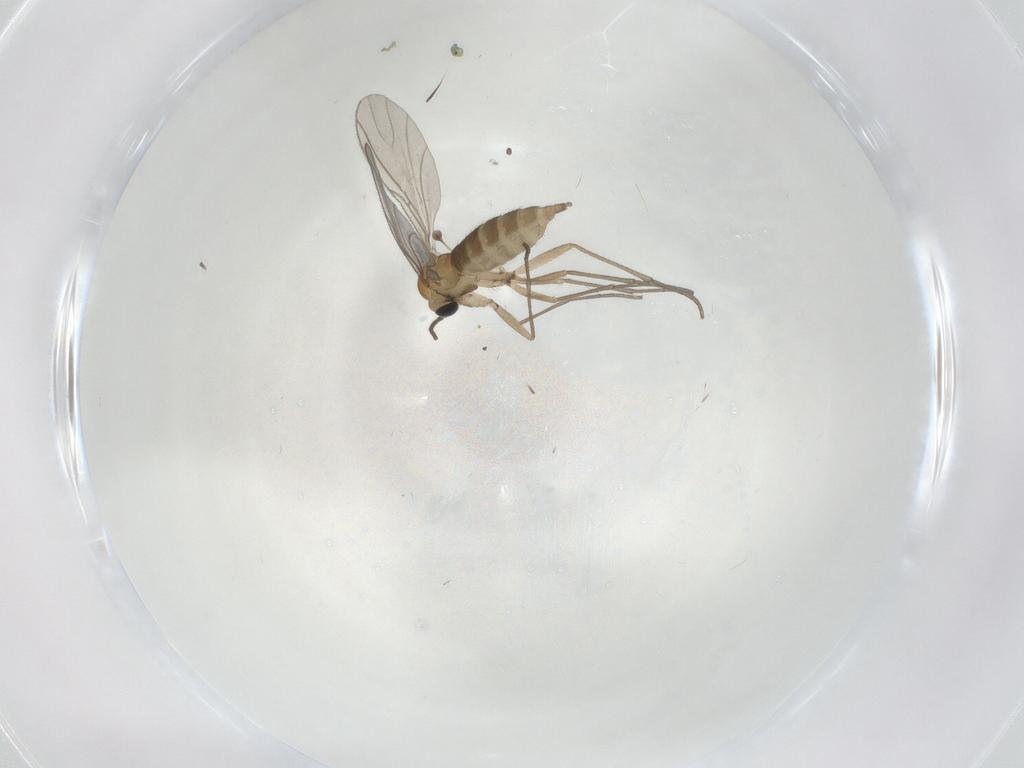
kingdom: Animalia
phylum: Arthropoda
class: Insecta
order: Diptera
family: Sciaridae
